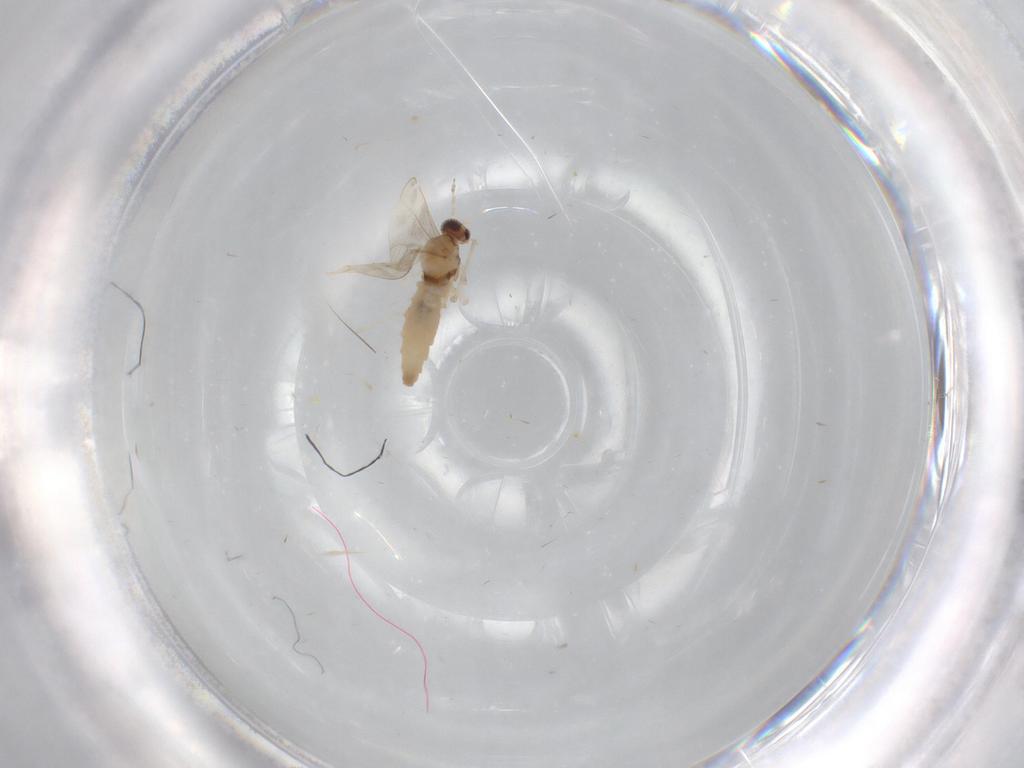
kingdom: Animalia
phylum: Arthropoda
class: Insecta
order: Diptera
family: Cecidomyiidae
